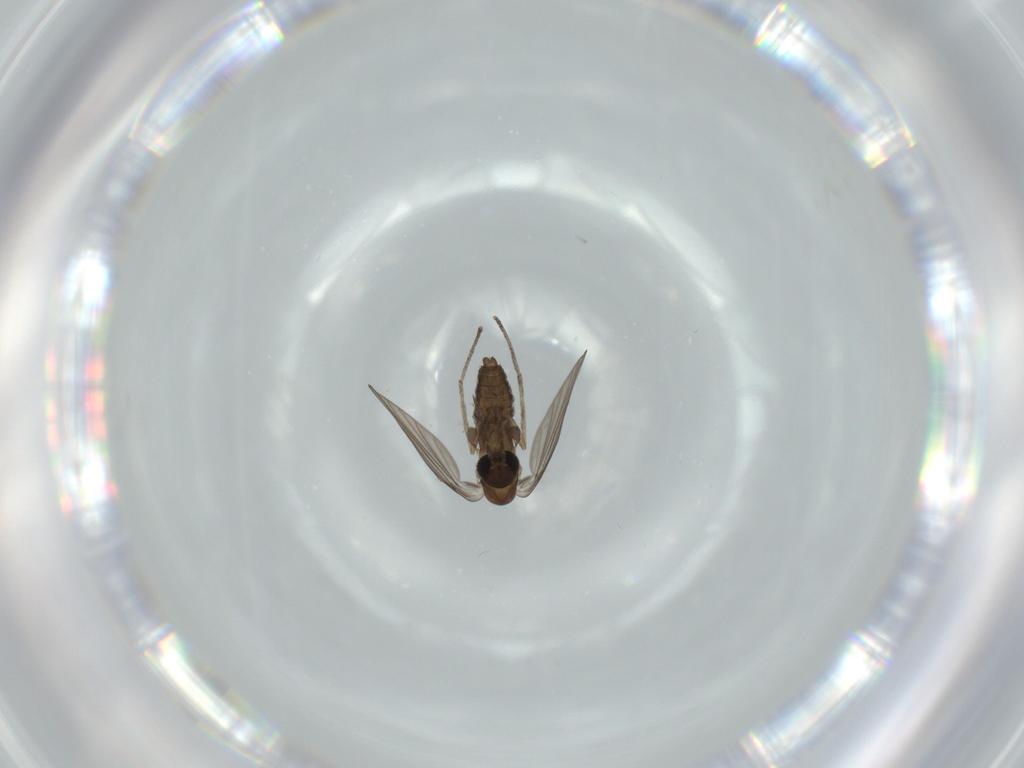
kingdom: Animalia
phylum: Arthropoda
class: Insecta
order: Diptera
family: Psychodidae
